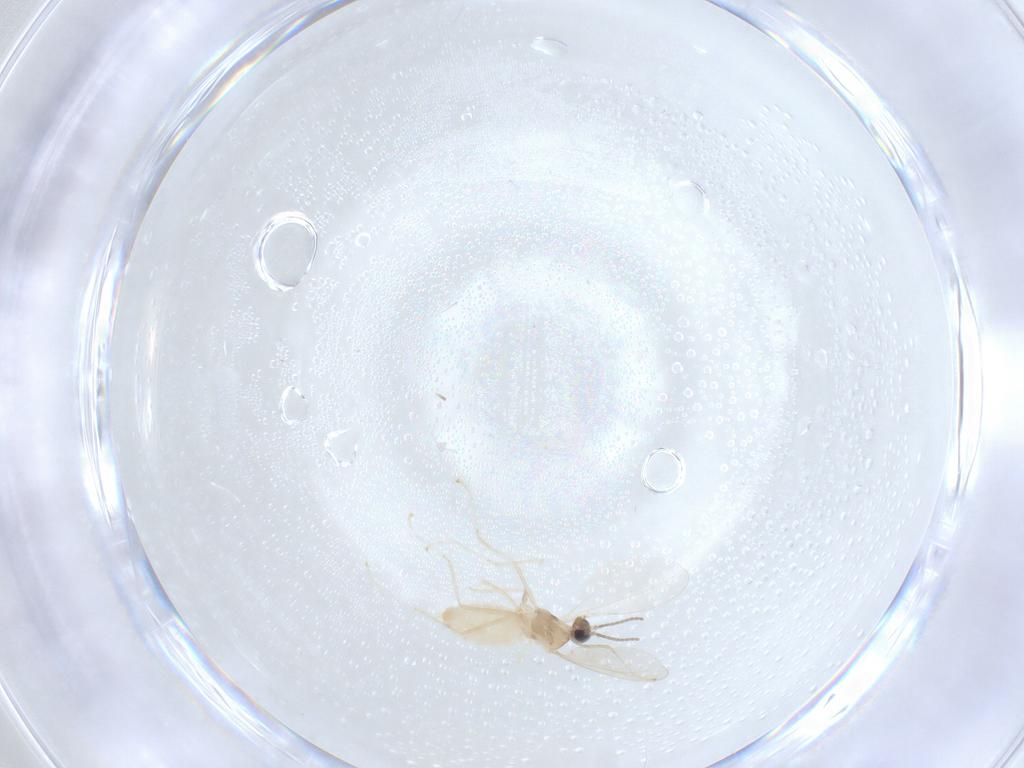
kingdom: Animalia
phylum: Arthropoda
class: Insecta
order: Diptera
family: Cecidomyiidae
